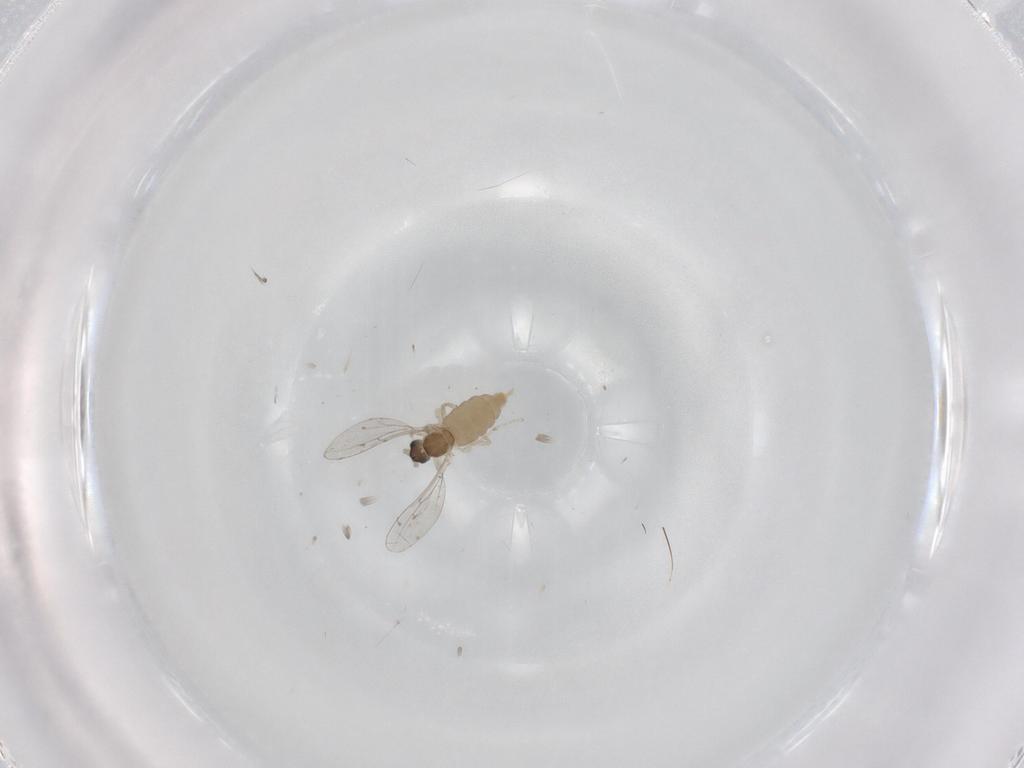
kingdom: Animalia
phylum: Arthropoda
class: Insecta
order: Diptera
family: Cecidomyiidae
